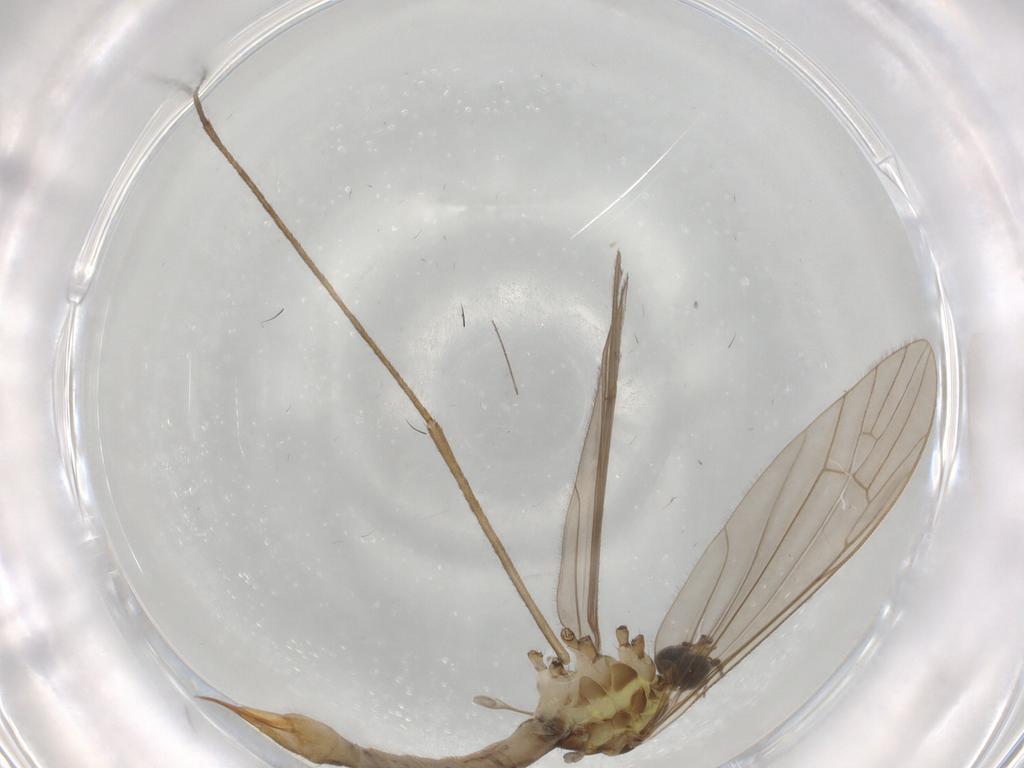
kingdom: Animalia
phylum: Arthropoda
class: Insecta
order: Diptera
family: Limoniidae
